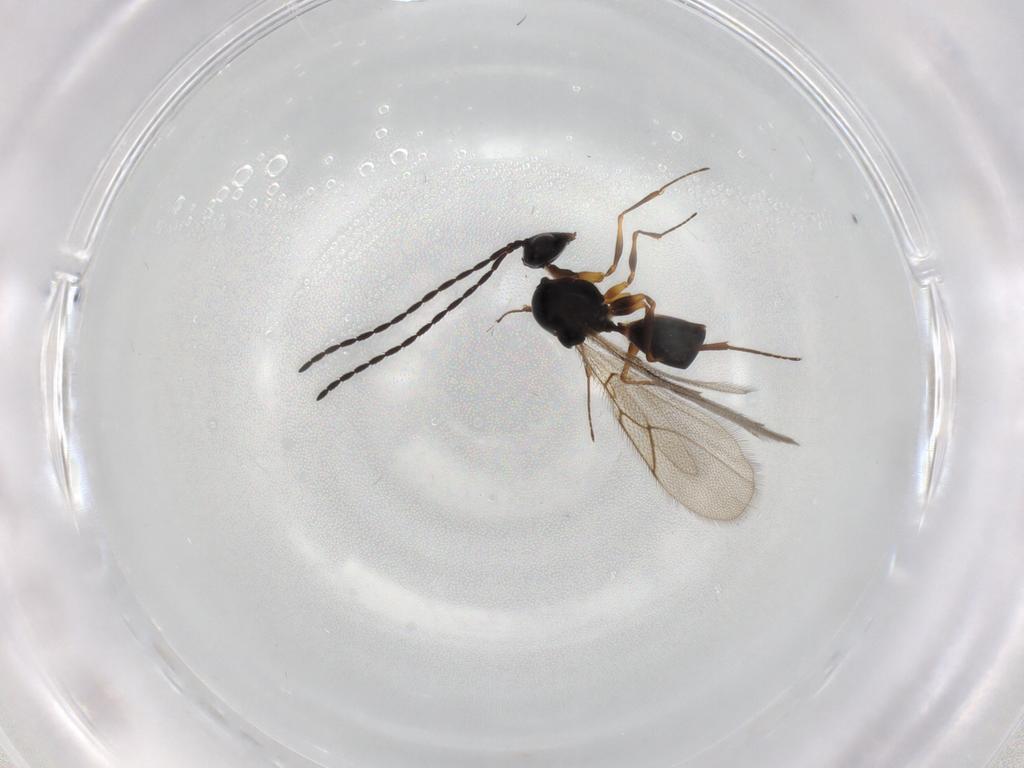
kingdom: Animalia
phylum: Arthropoda
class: Insecta
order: Hymenoptera
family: Figitidae
